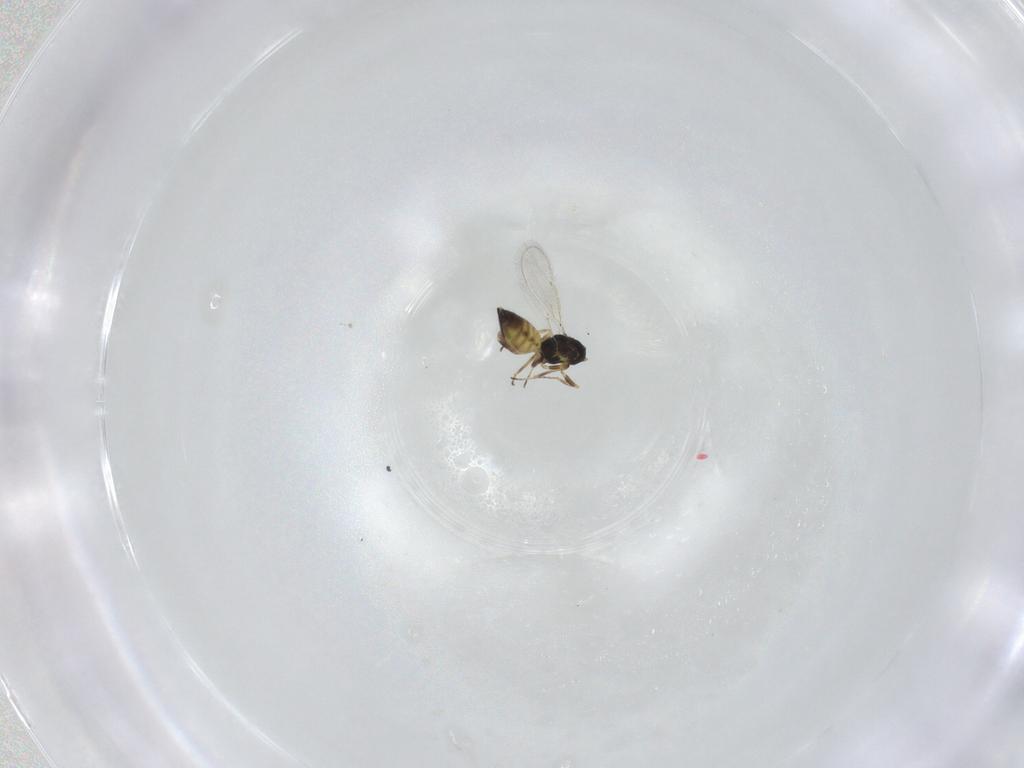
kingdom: Animalia
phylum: Arthropoda
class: Insecta
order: Hymenoptera
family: Eulophidae
